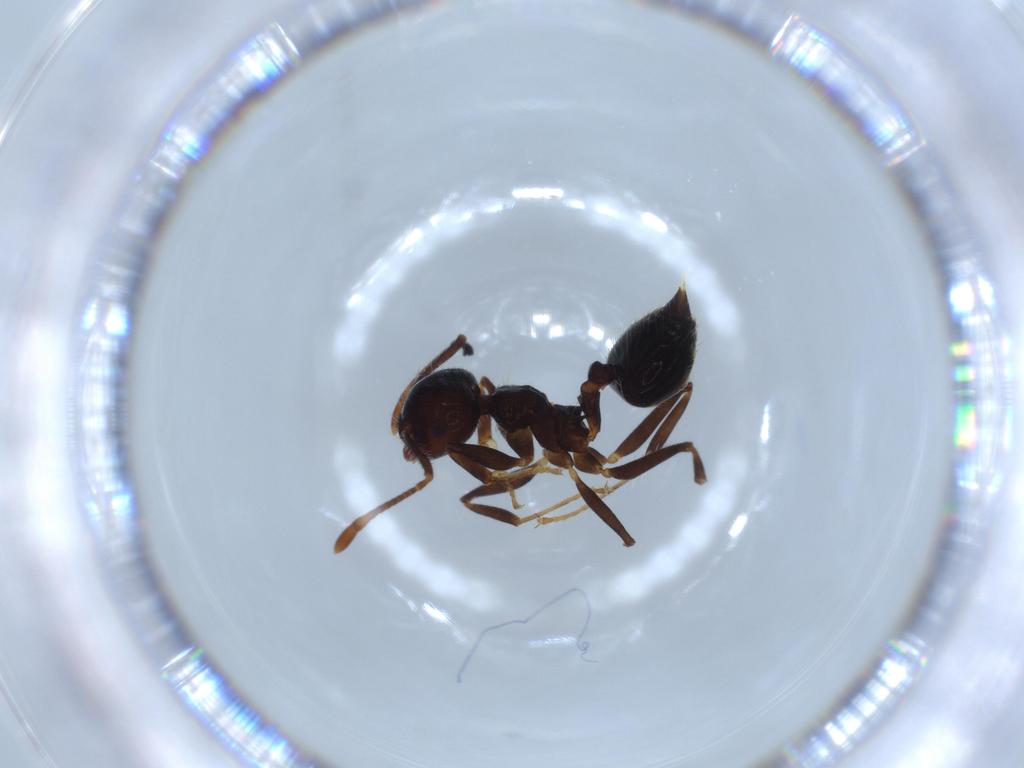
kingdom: Animalia
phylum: Arthropoda
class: Insecta
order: Hymenoptera
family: Formicidae
